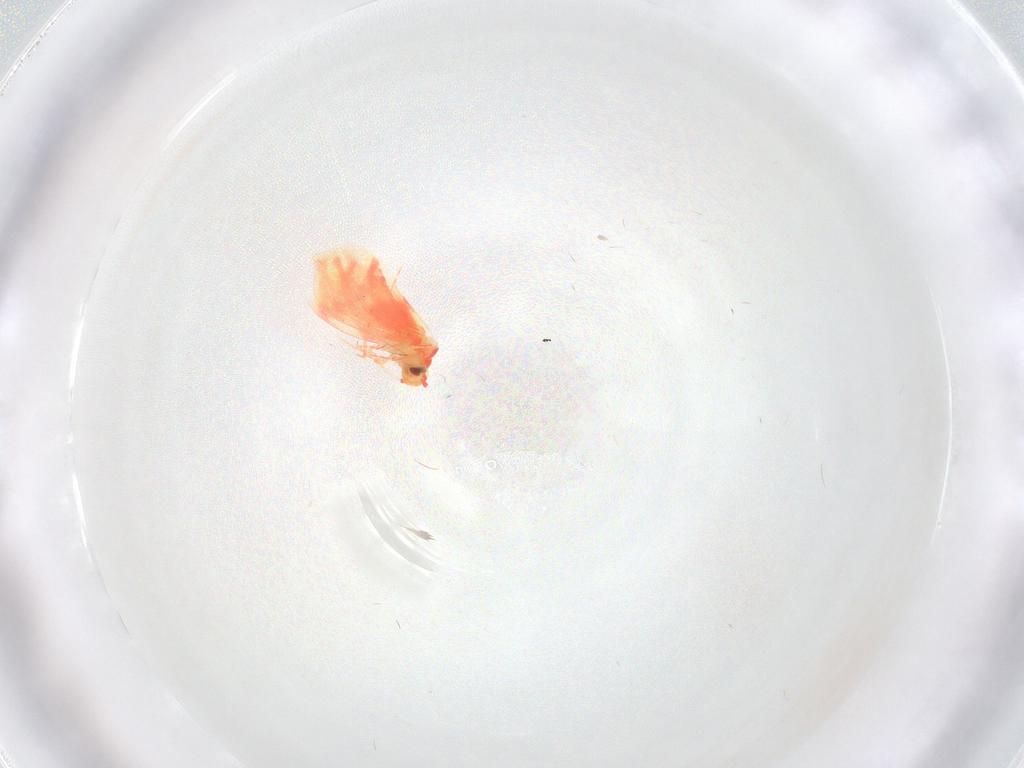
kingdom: Animalia
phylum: Arthropoda
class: Insecta
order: Hemiptera
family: Aleyrodidae
